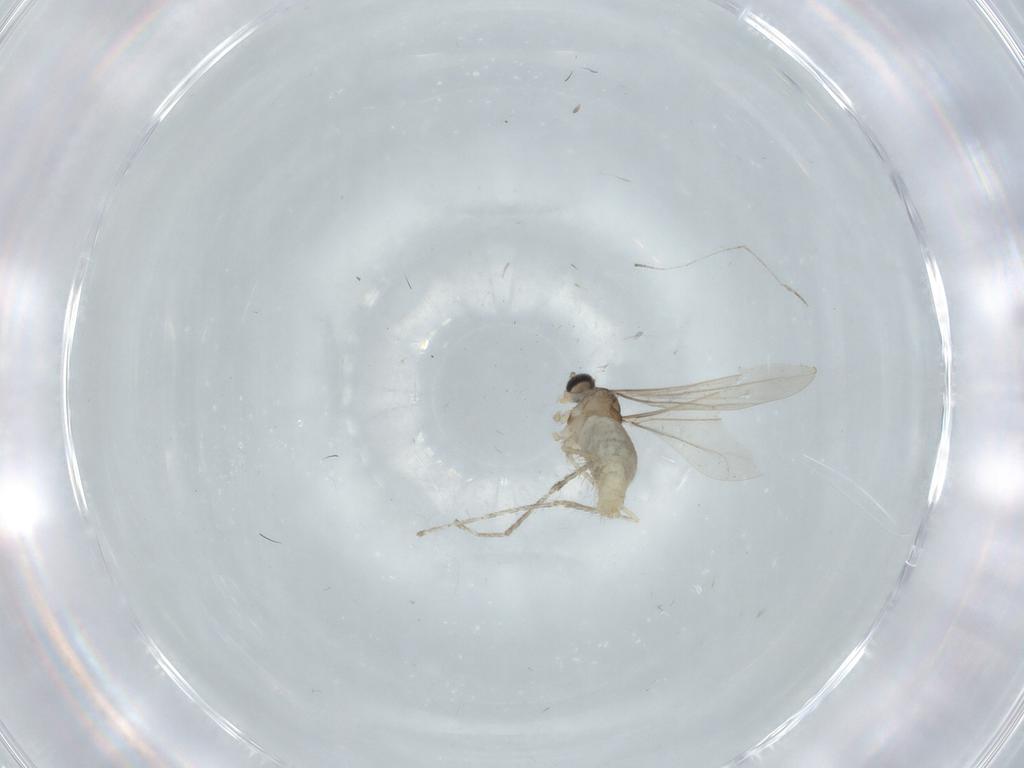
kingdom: Animalia
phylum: Arthropoda
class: Insecta
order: Diptera
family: Cecidomyiidae
